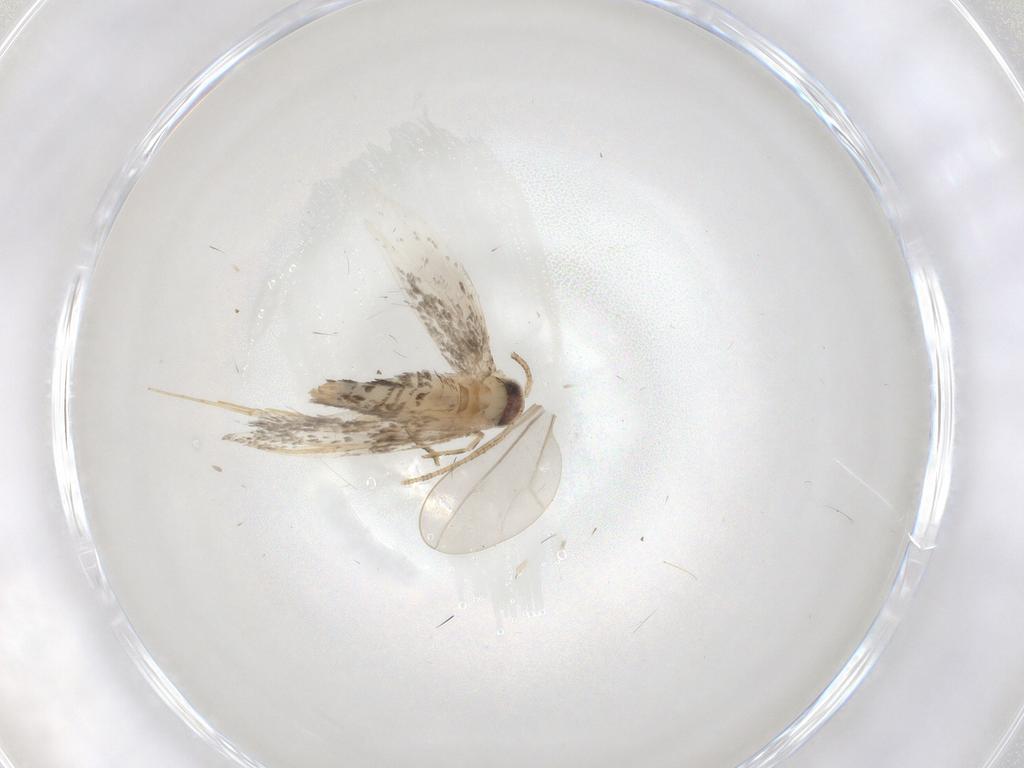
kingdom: Animalia
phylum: Arthropoda
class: Insecta
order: Lepidoptera
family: Nepticulidae
